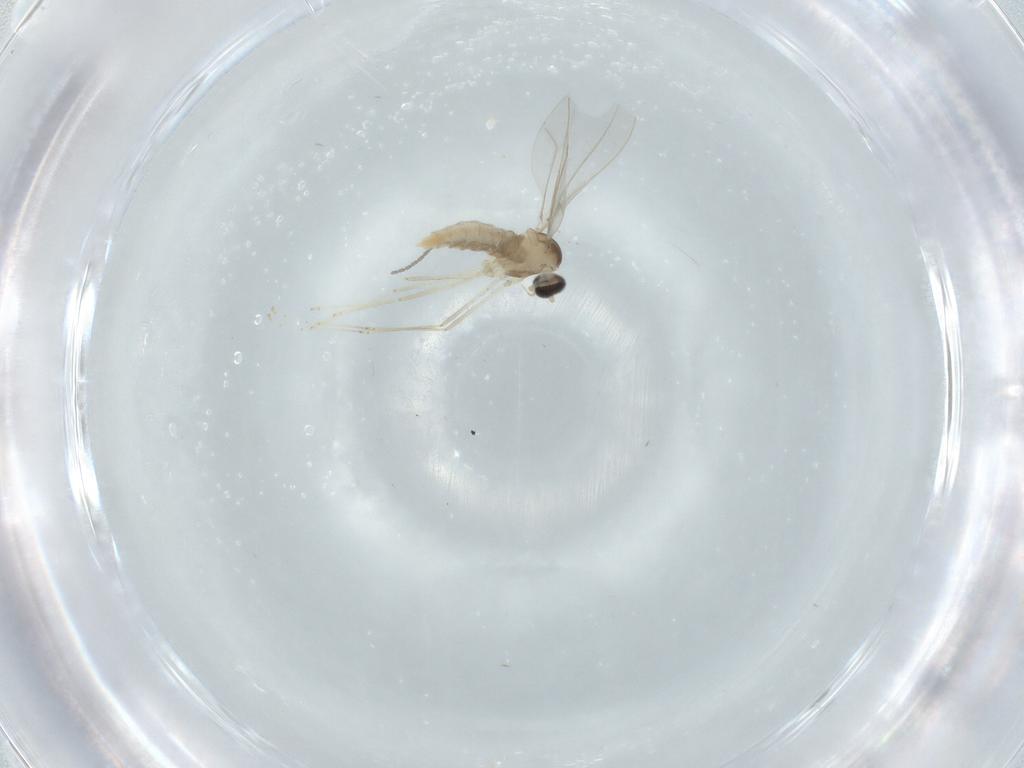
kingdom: Animalia
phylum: Arthropoda
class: Insecta
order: Diptera
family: Cecidomyiidae
